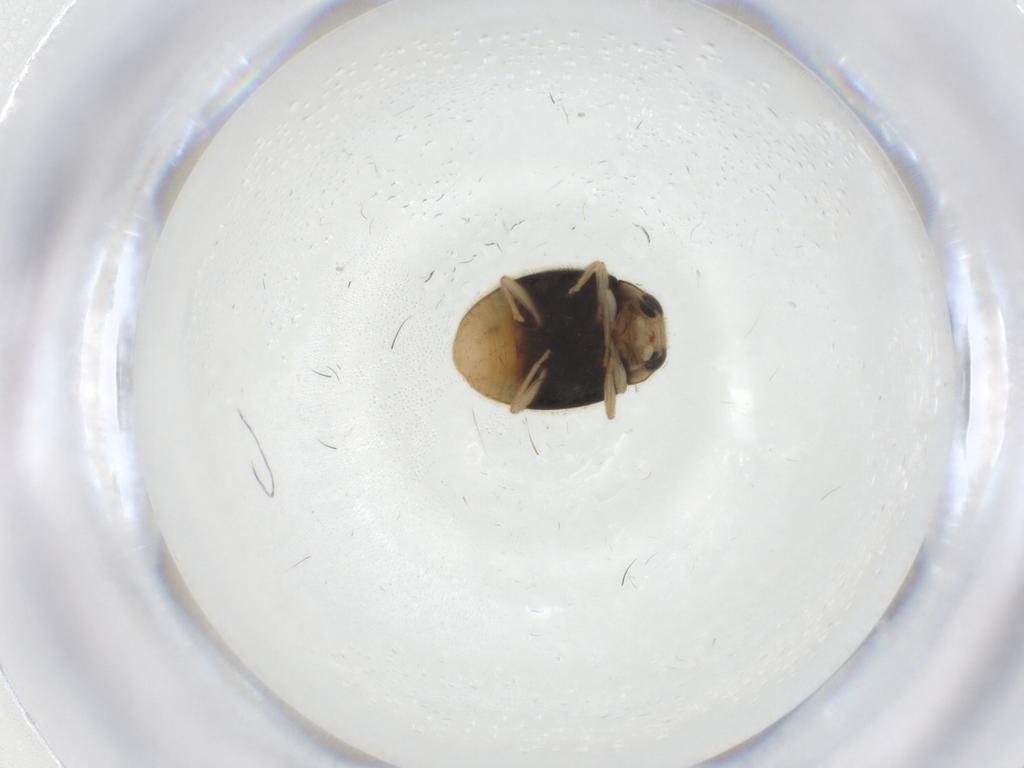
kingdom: Animalia
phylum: Arthropoda
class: Insecta
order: Coleoptera
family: Coccinellidae
